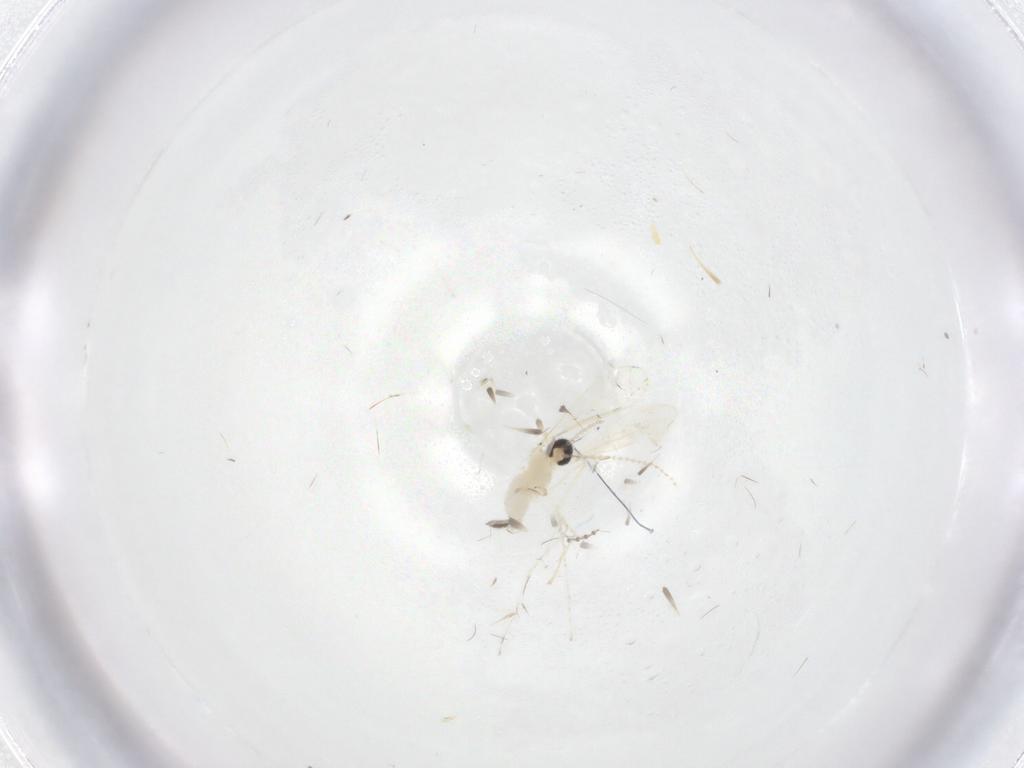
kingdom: Animalia
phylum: Arthropoda
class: Insecta
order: Diptera
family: Cecidomyiidae
